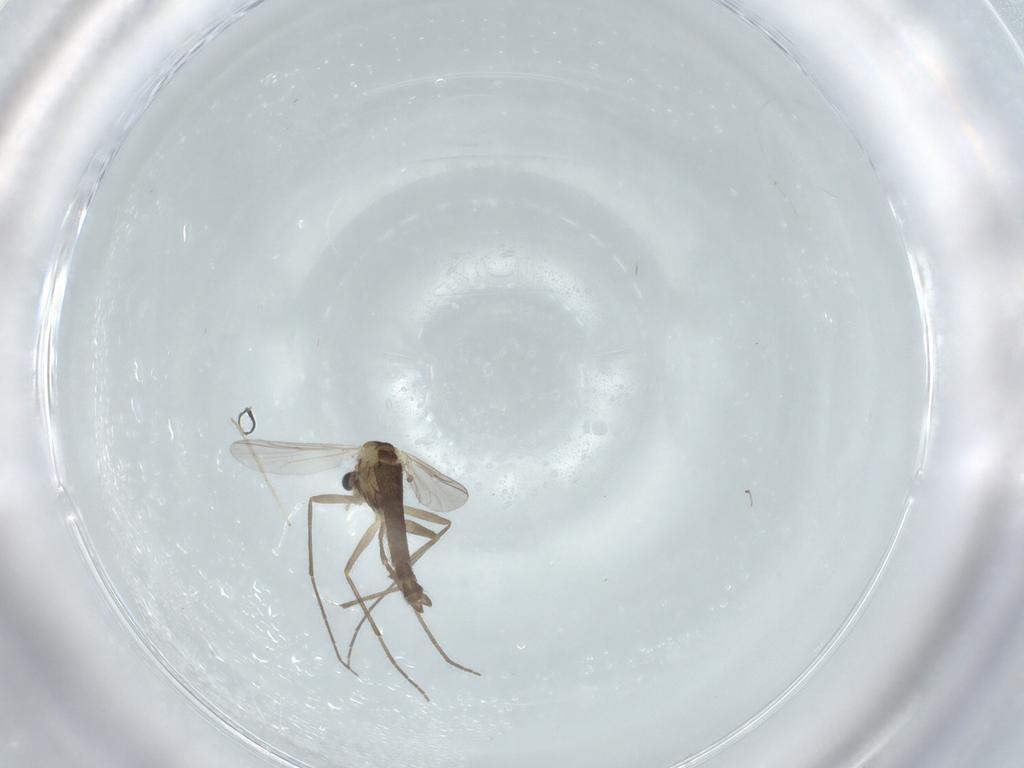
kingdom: Animalia
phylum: Arthropoda
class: Insecta
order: Diptera
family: Chironomidae
